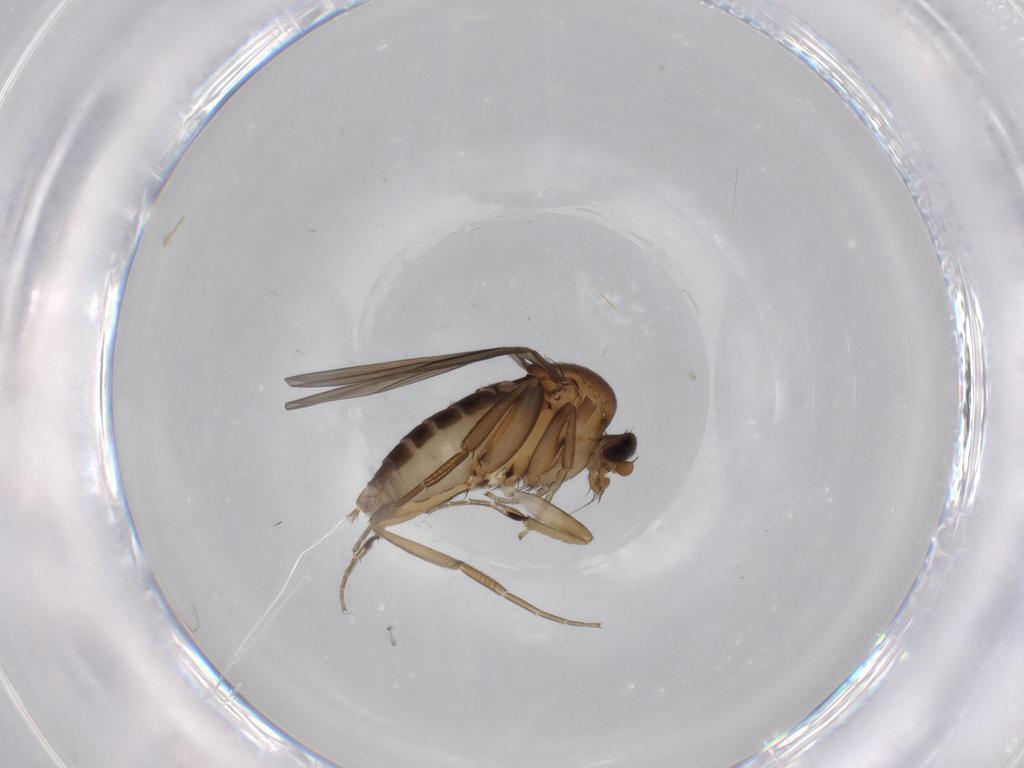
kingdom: Animalia
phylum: Arthropoda
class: Insecta
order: Diptera
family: Phoridae
